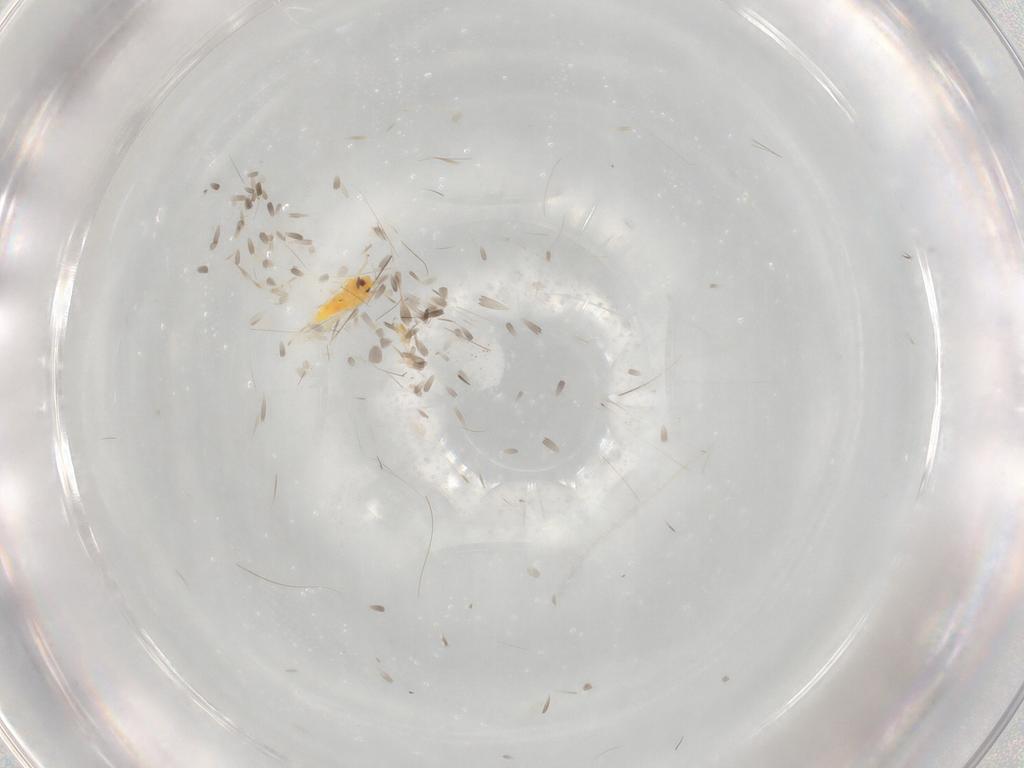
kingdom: Animalia
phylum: Arthropoda
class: Insecta
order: Hemiptera
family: Aleyrodidae
